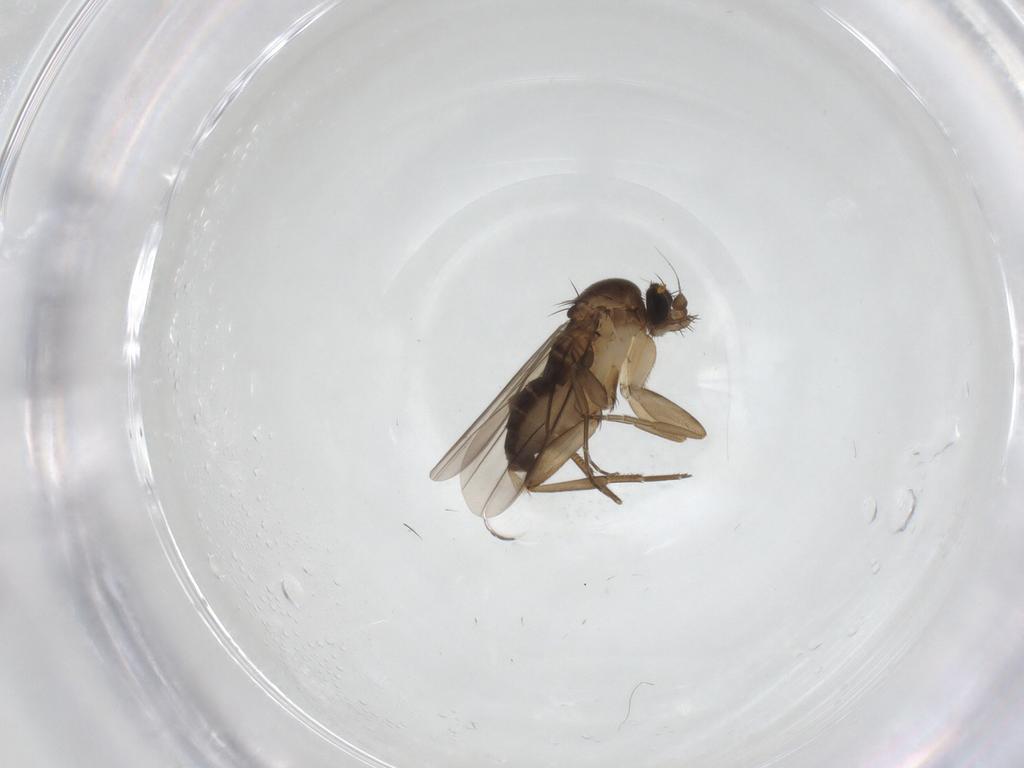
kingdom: Animalia
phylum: Arthropoda
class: Insecta
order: Diptera
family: Phoridae
